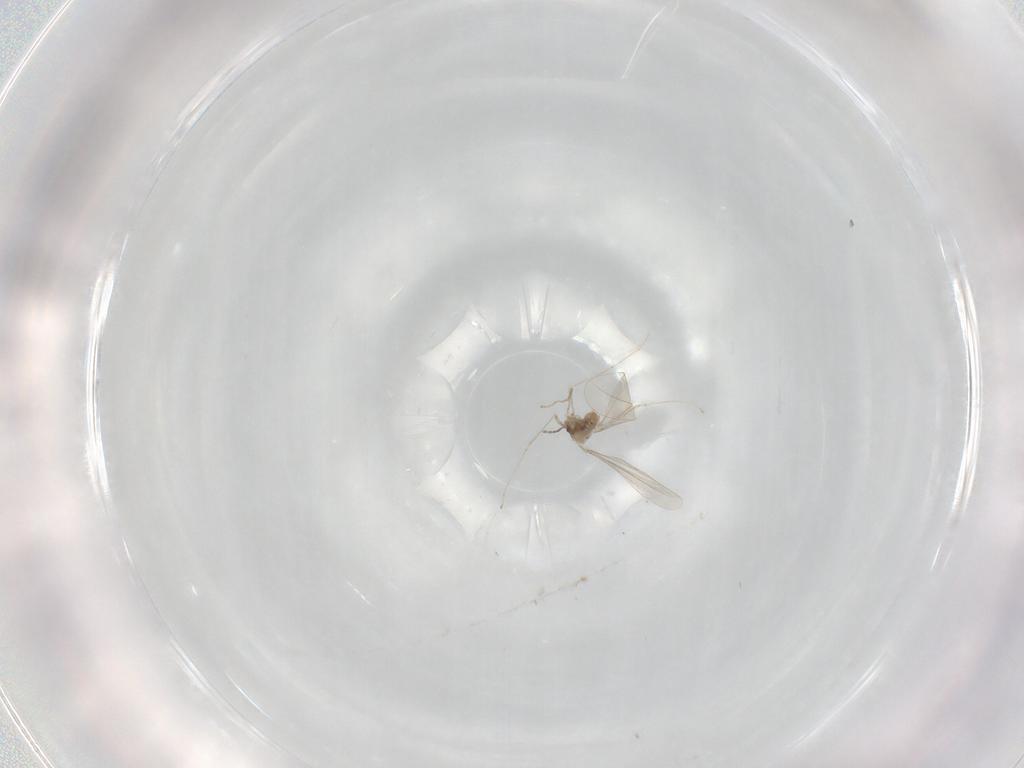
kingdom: Animalia
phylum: Arthropoda
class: Insecta
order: Diptera
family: Cecidomyiidae
